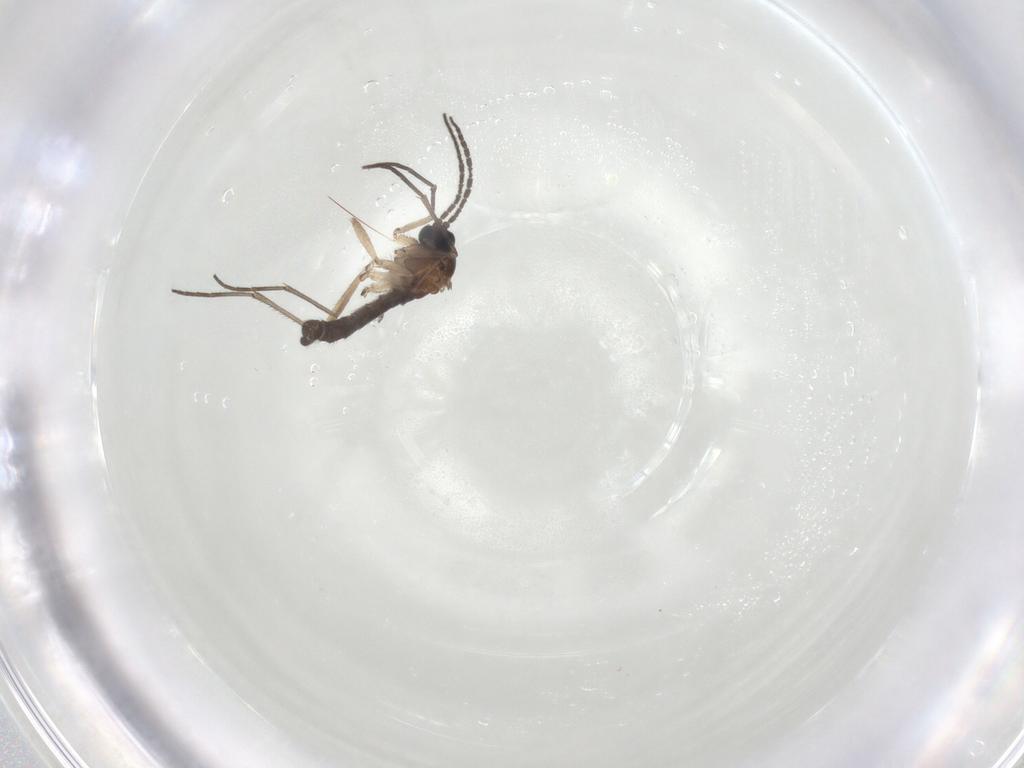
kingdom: Animalia
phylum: Arthropoda
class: Insecta
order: Diptera
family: Sciaridae
